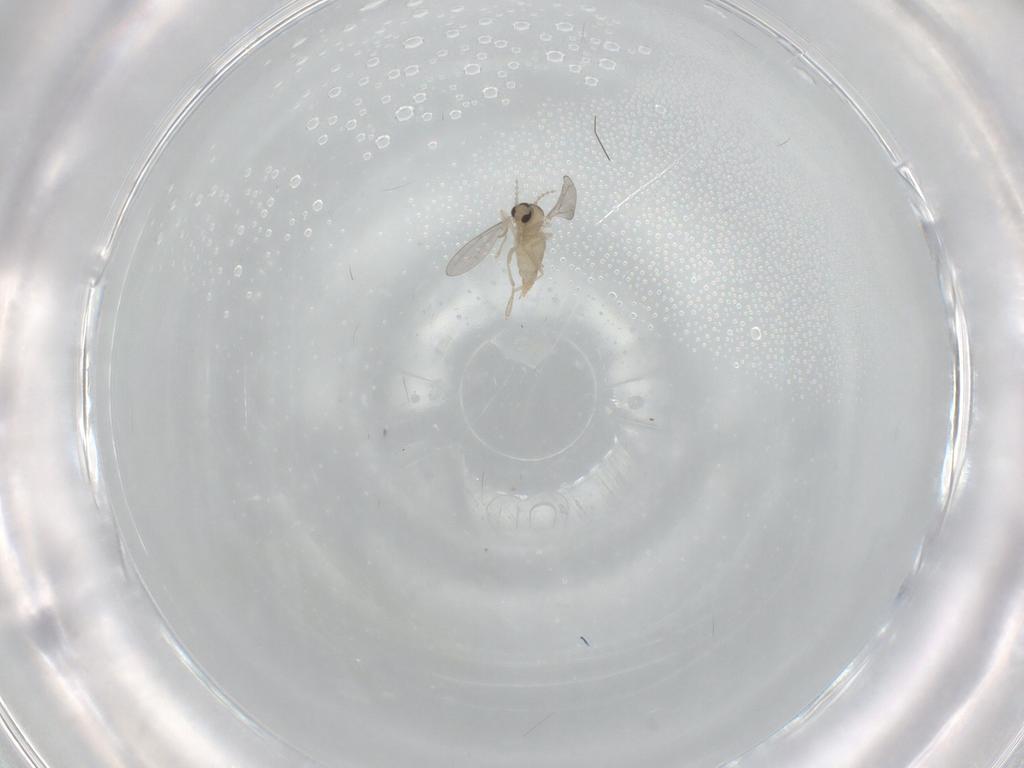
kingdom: Animalia
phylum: Arthropoda
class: Insecta
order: Diptera
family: Cecidomyiidae
